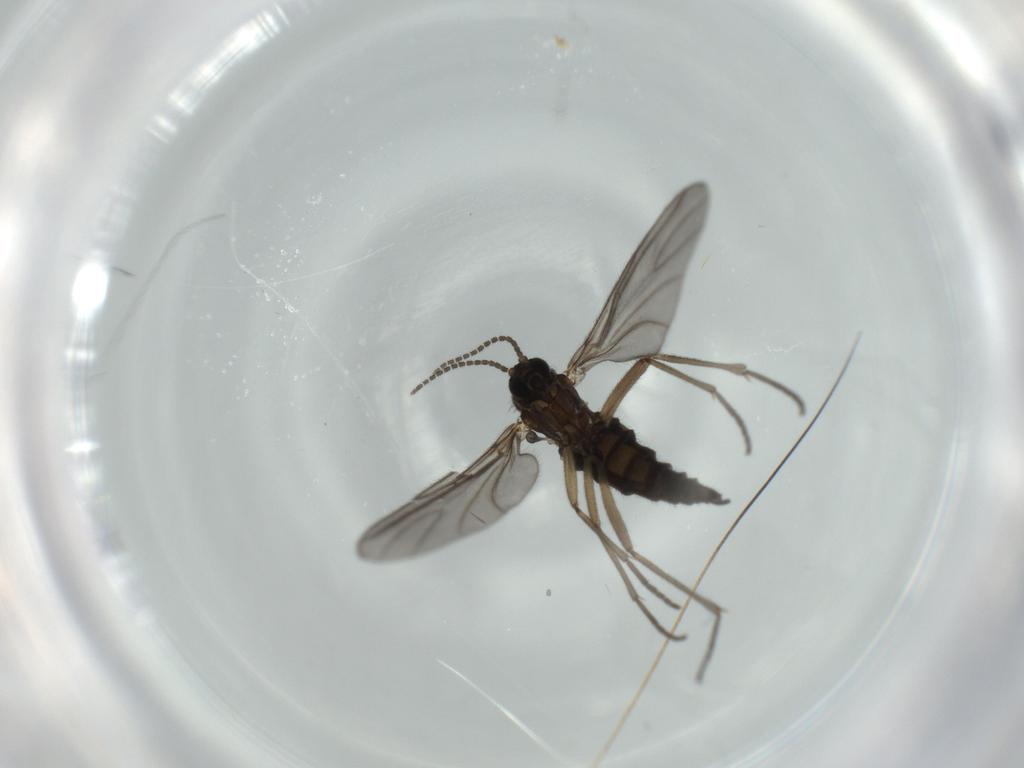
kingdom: Animalia
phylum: Arthropoda
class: Insecta
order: Diptera
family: Sciaridae
